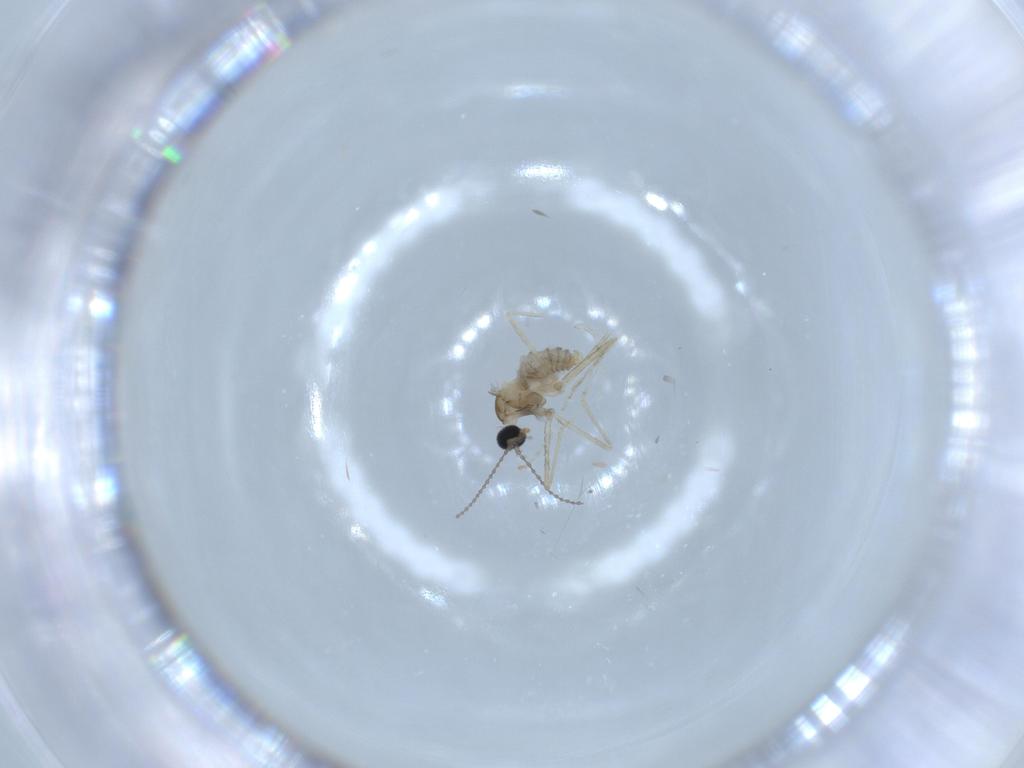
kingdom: Animalia
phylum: Arthropoda
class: Insecta
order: Diptera
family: Cecidomyiidae
